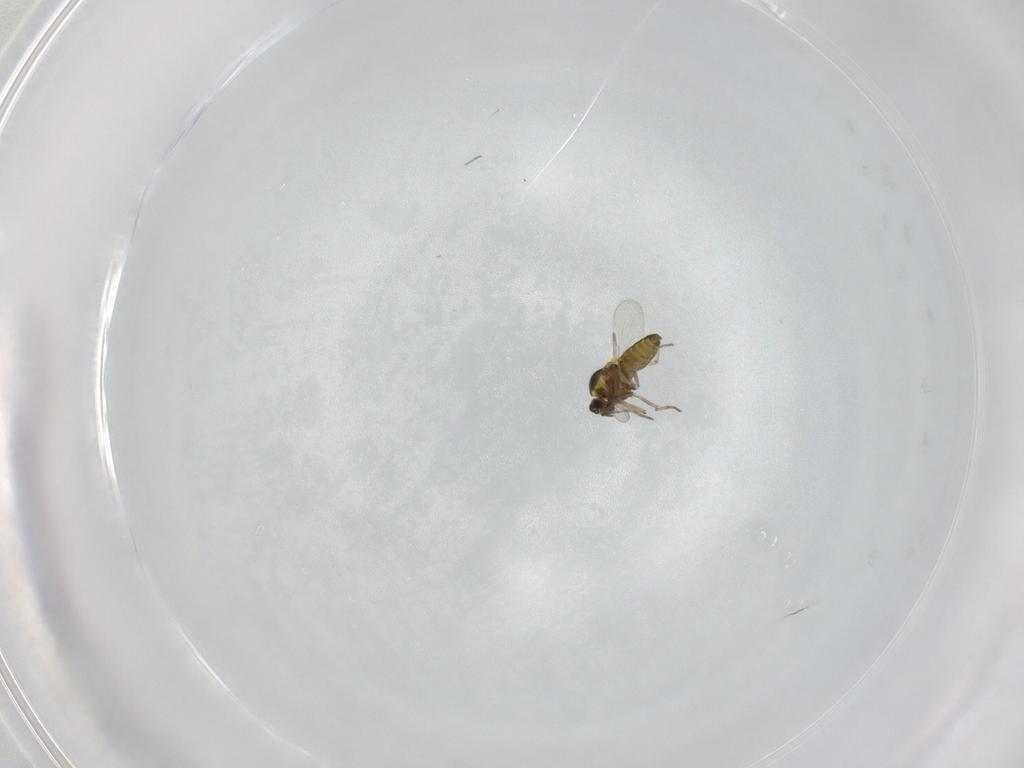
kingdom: Animalia
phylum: Arthropoda
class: Insecta
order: Diptera
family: Ceratopogonidae
